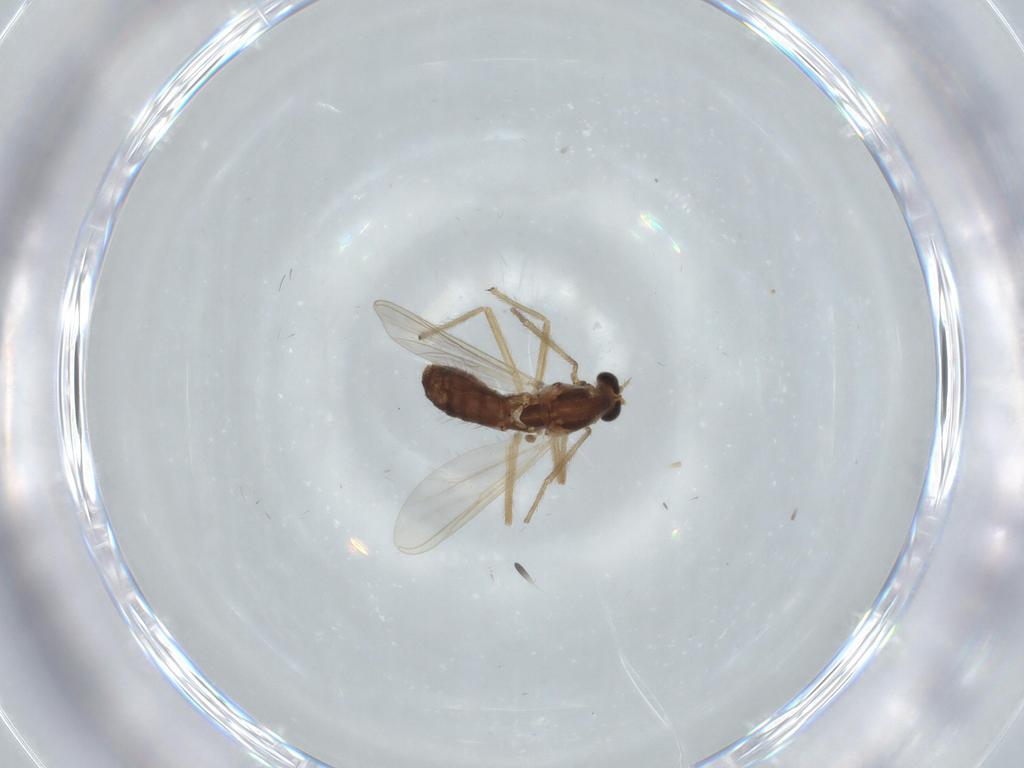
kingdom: Animalia
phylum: Arthropoda
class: Insecta
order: Diptera
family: Chironomidae
